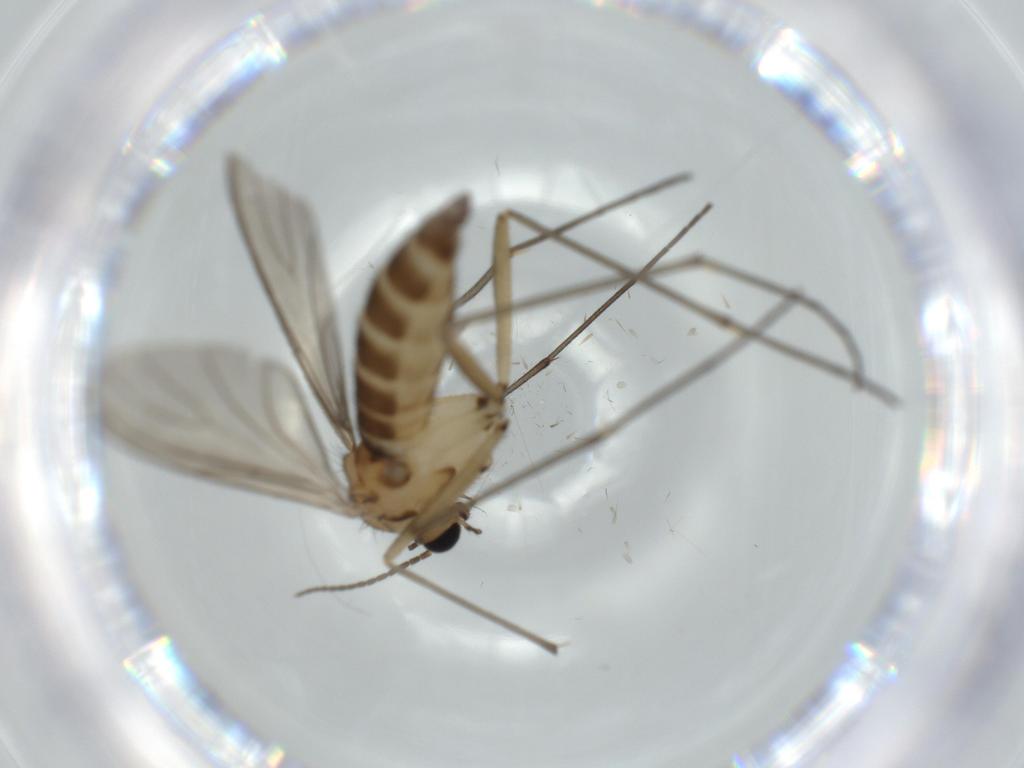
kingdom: Animalia
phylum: Arthropoda
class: Insecta
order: Diptera
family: Sciaridae
